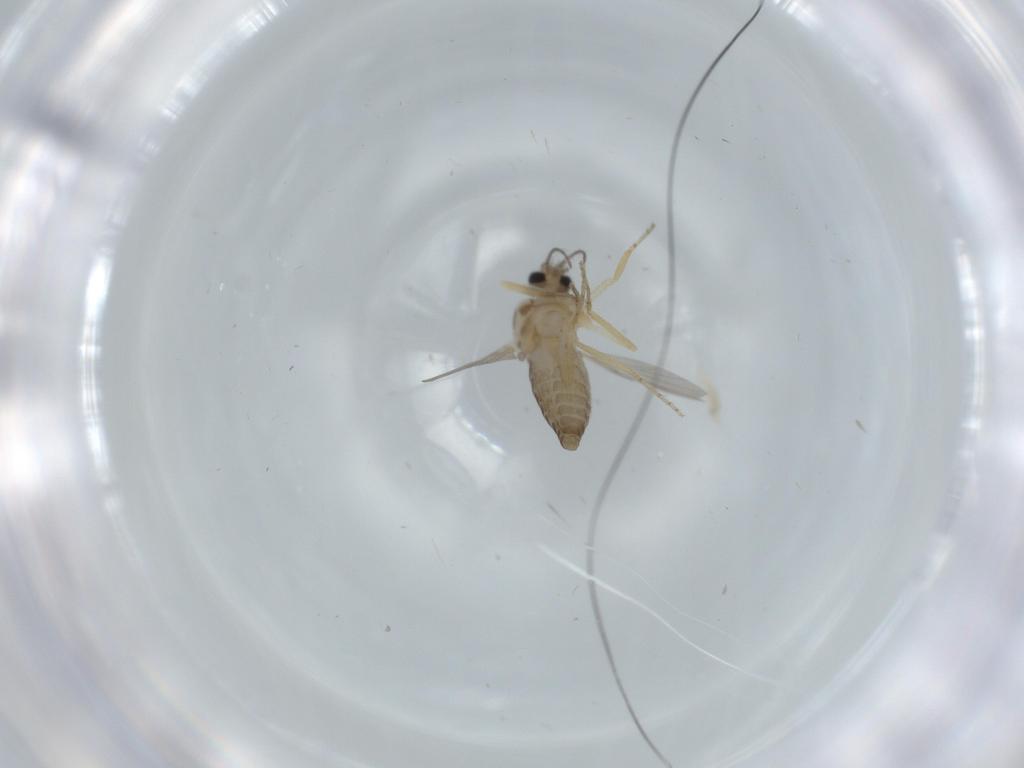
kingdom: Animalia
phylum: Arthropoda
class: Insecta
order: Diptera
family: Ceratopogonidae
